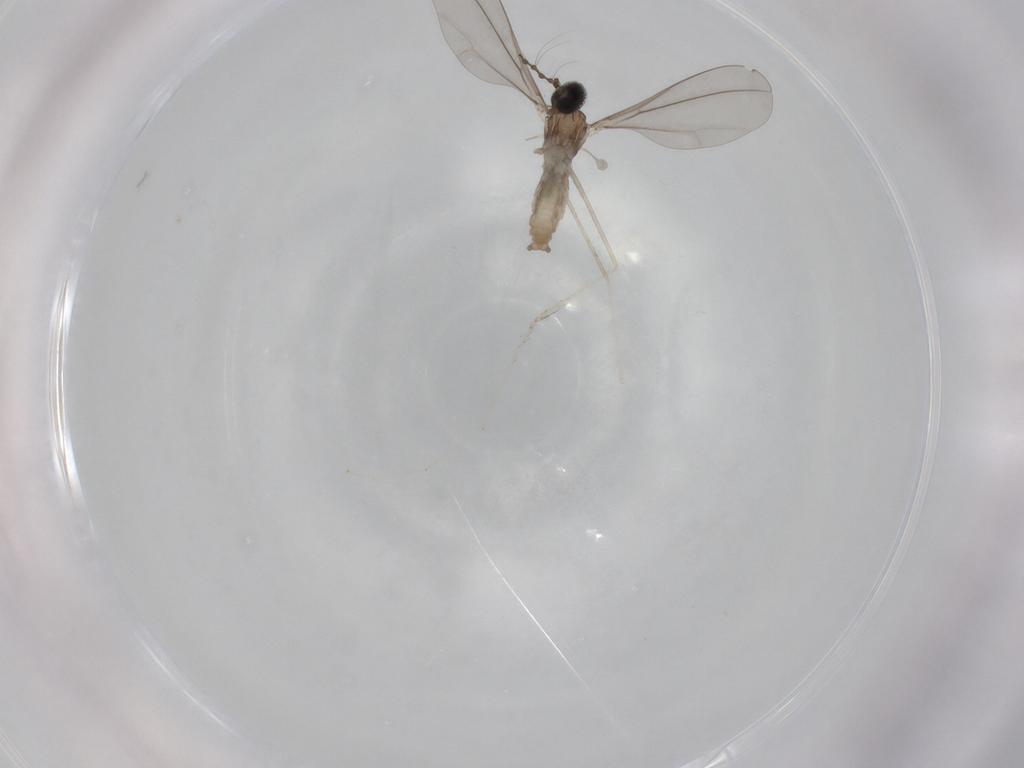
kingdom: Animalia
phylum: Arthropoda
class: Insecta
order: Diptera
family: Cecidomyiidae
